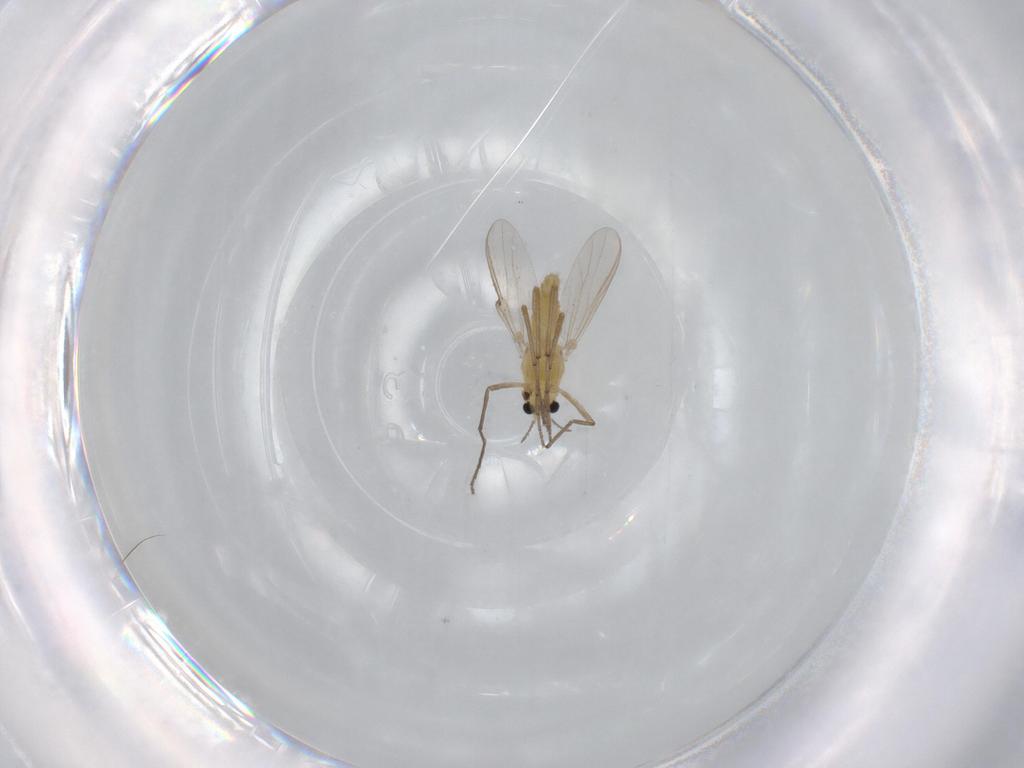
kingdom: Animalia
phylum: Arthropoda
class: Insecta
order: Diptera
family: Chironomidae
